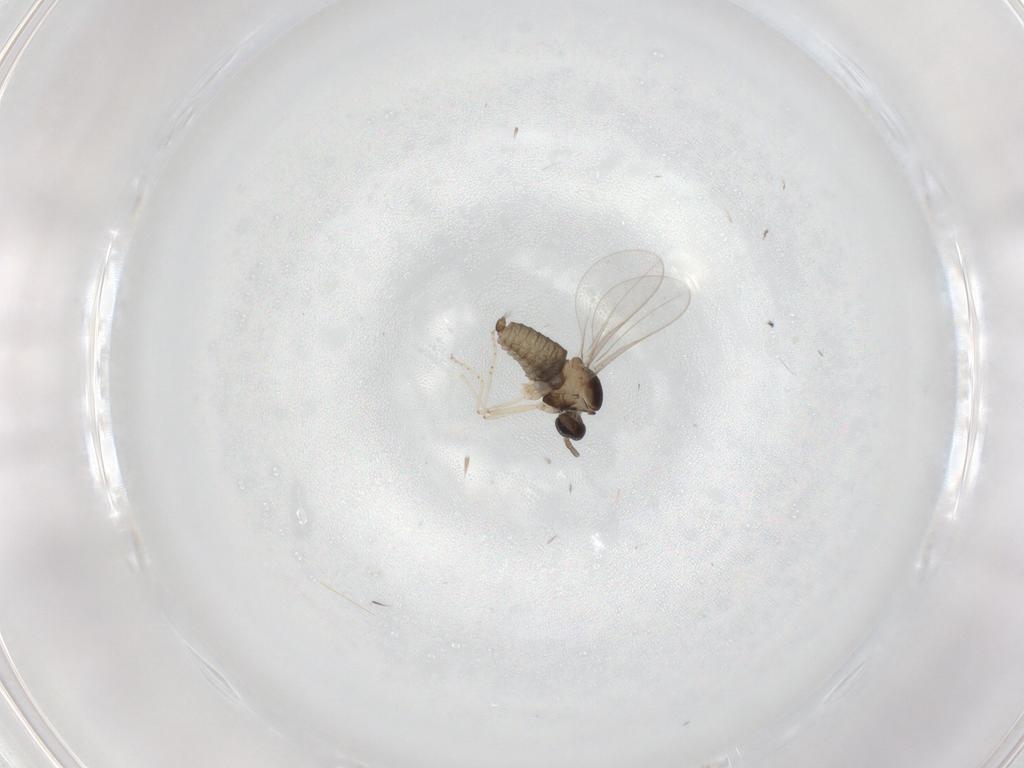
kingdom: Animalia
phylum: Arthropoda
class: Insecta
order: Diptera
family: Cecidomyiidae
